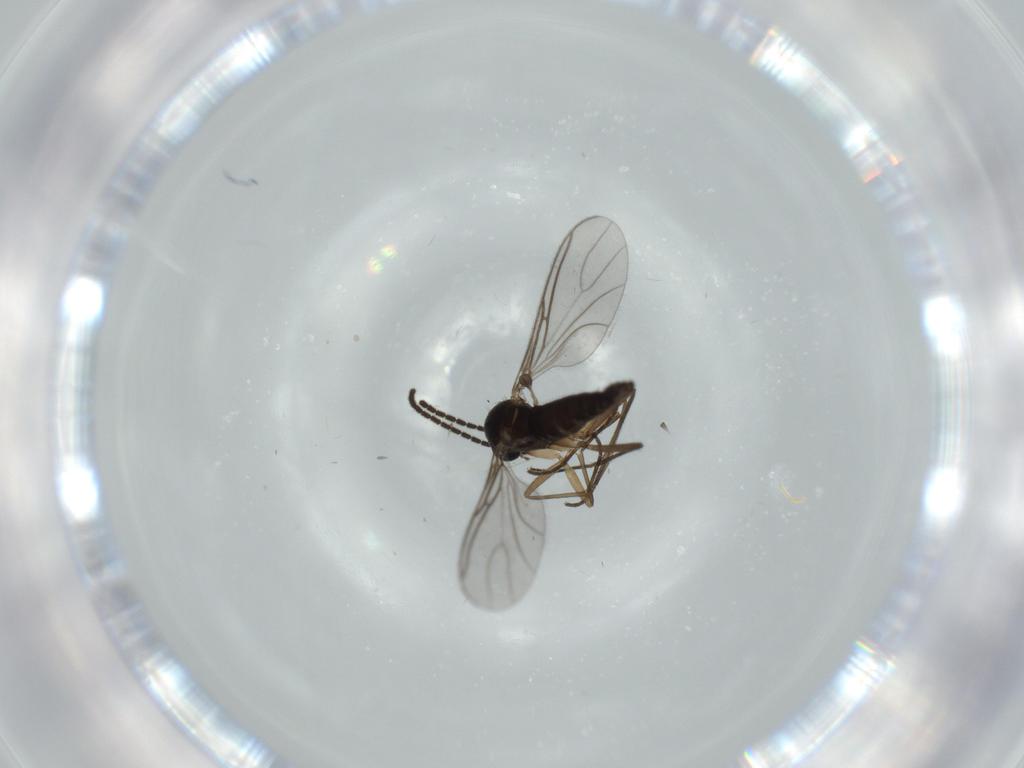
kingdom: Animalia
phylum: Arthropoda
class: Insecta
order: Diptera
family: Sciaridae
